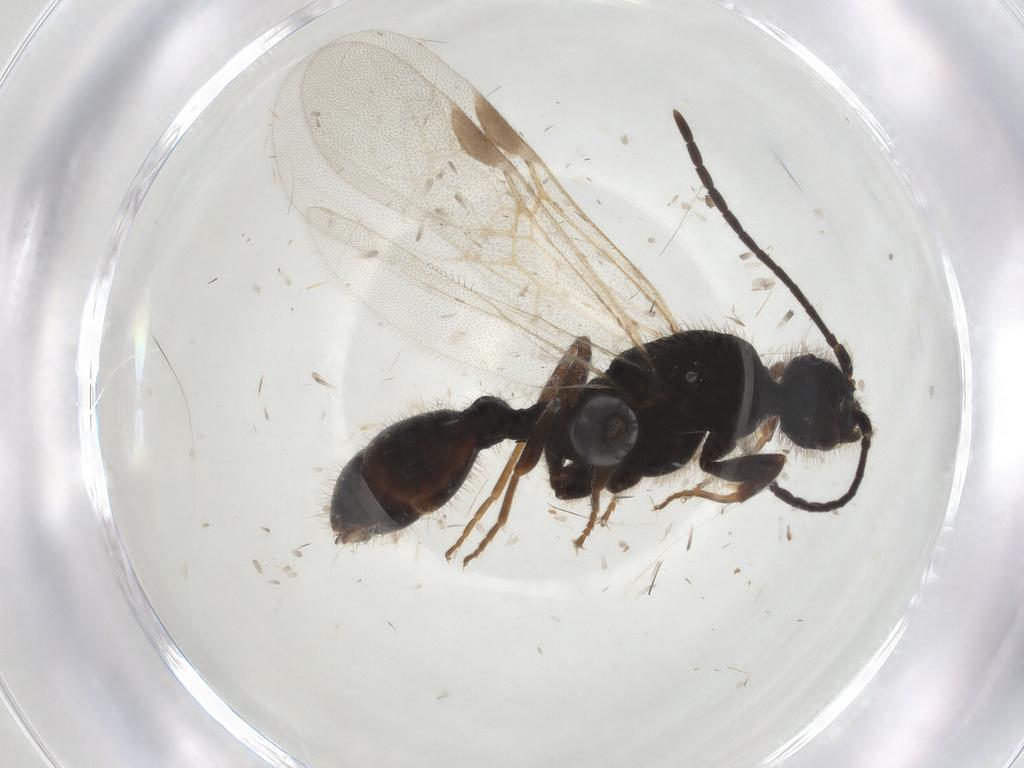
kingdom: Animalia
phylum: Arthropoda
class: Insecta
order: Hymenoptera
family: Formicidae
